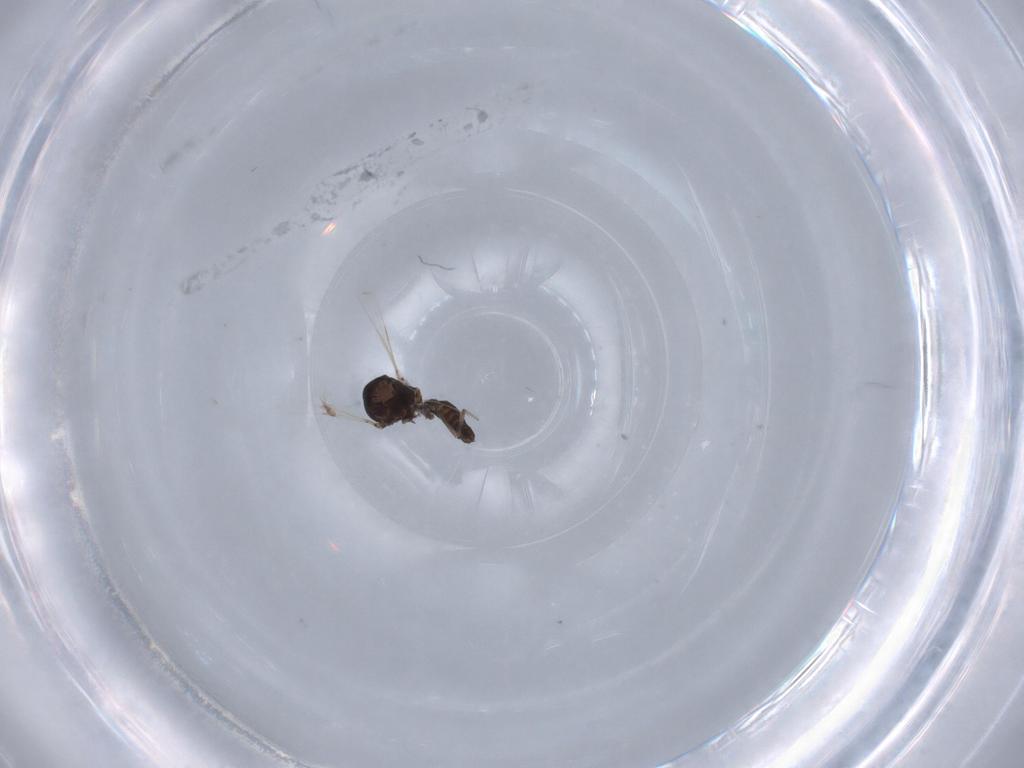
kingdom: Animalia
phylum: Arthropoda
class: Insecta
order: Diptera
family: Ceratopogonidae
